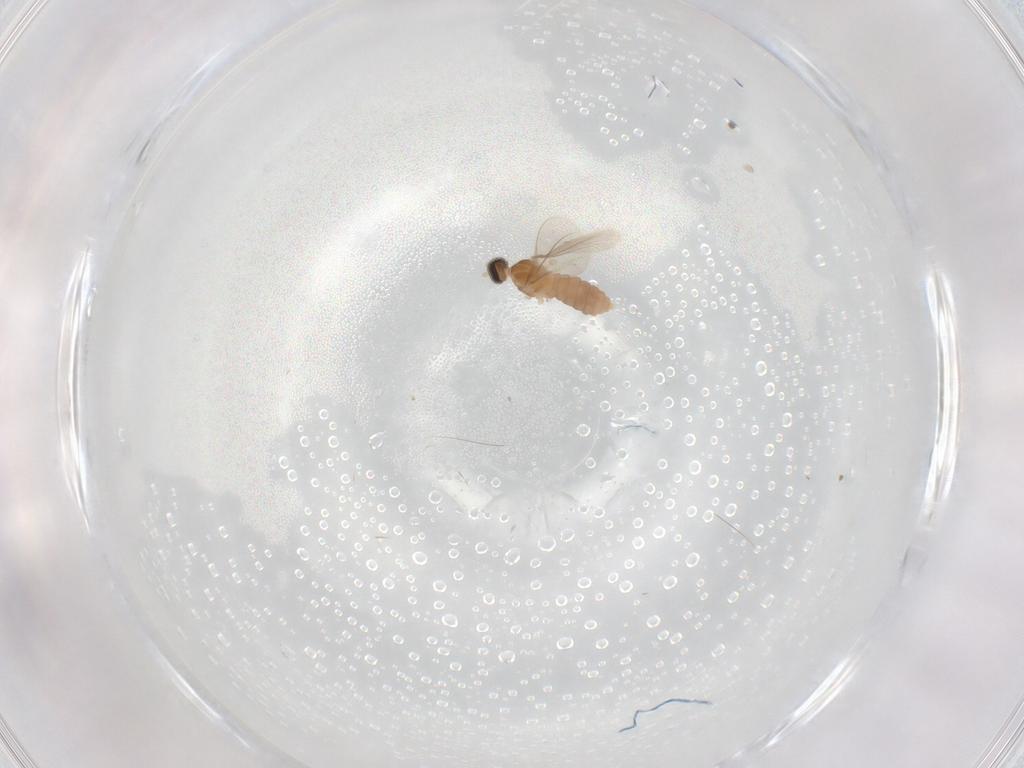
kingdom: Animalia
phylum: Arthropoda
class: Insecta
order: Diptera
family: Cecidomyiidae
